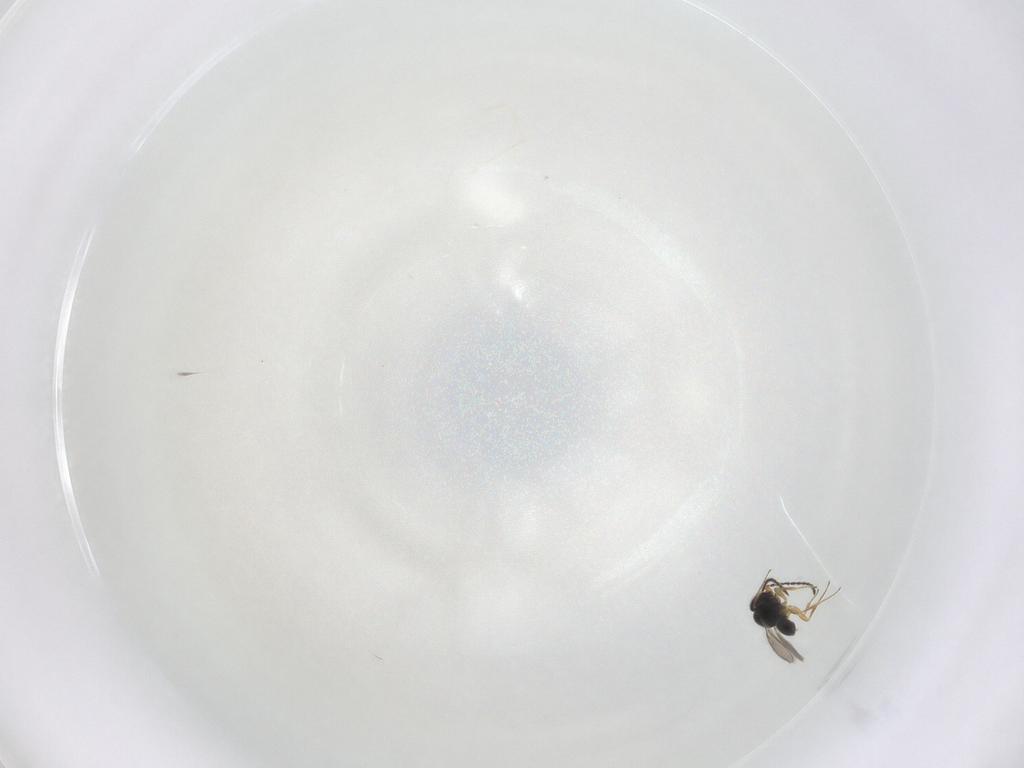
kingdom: Animalia
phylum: Arthropoda
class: Insecta
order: Hymenoptera
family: Scelionidae
